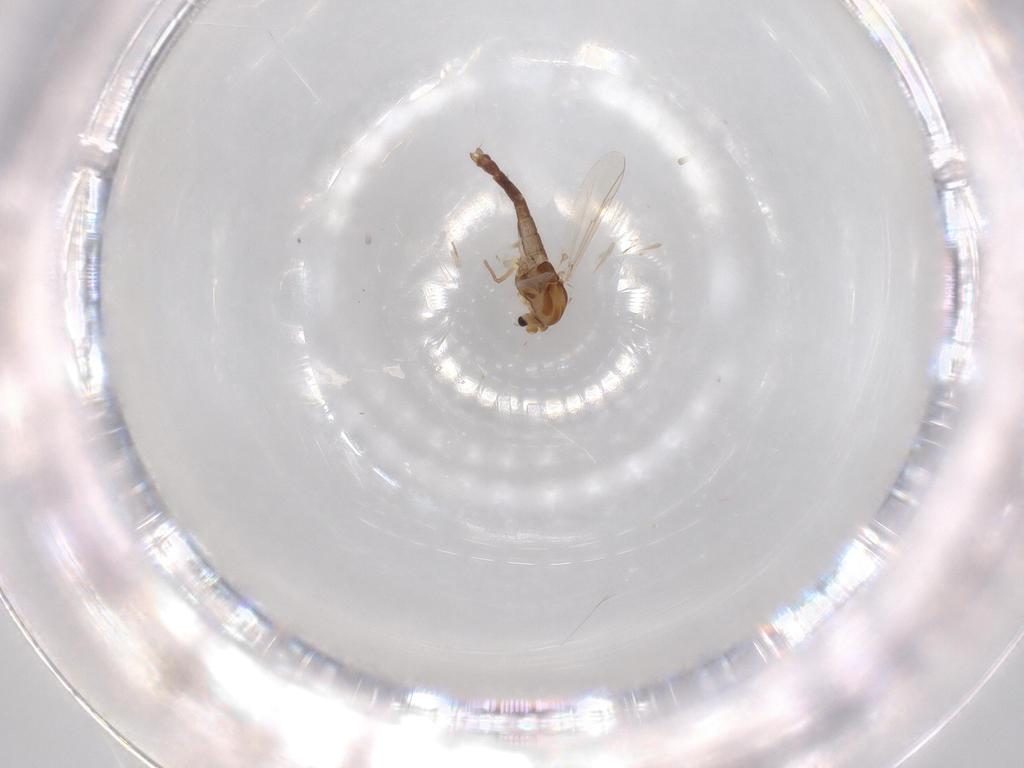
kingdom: Animalia
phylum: Arthropoda
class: Insecta
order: Diptera
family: Chironomidae
